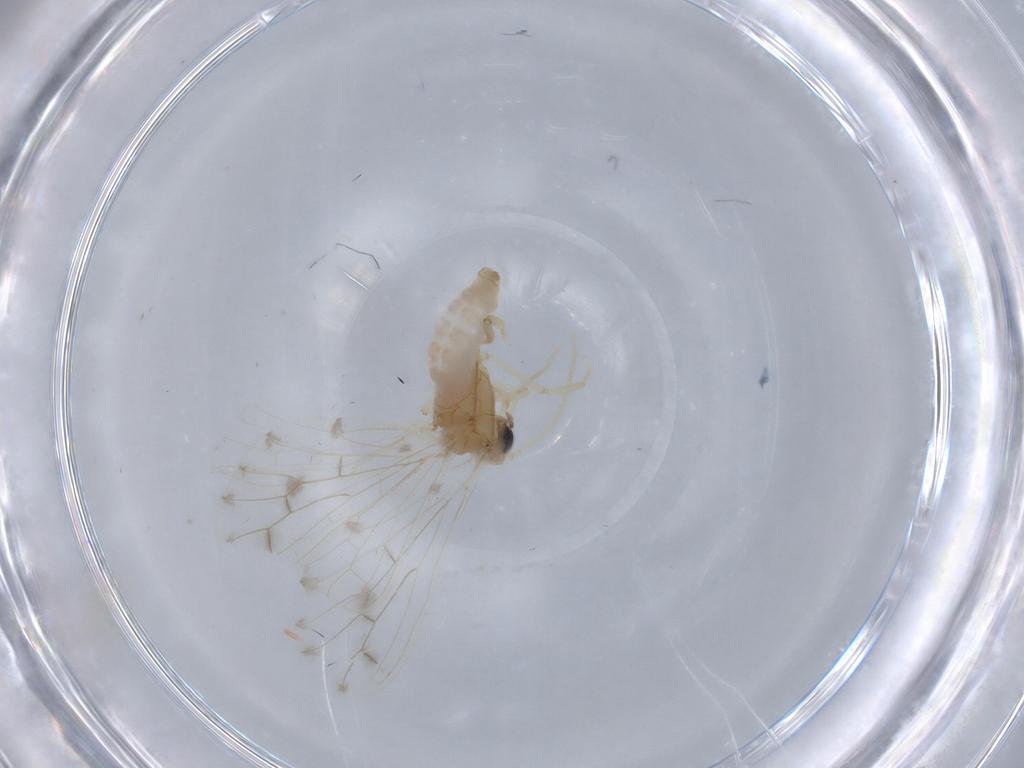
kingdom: Animalia
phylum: Arthropoda
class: Insecta
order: Neuroptera
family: Coniopterygidae
